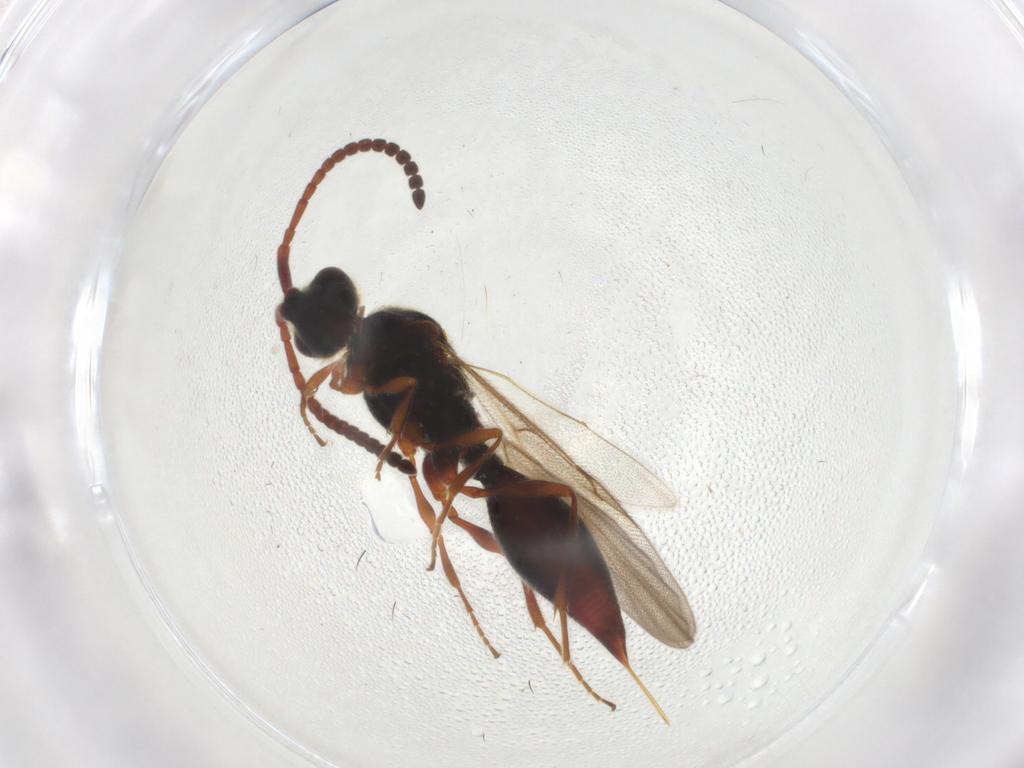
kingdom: Animalia
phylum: Arthropoda
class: Insecta
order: Hymenoptera
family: Diapriidae
